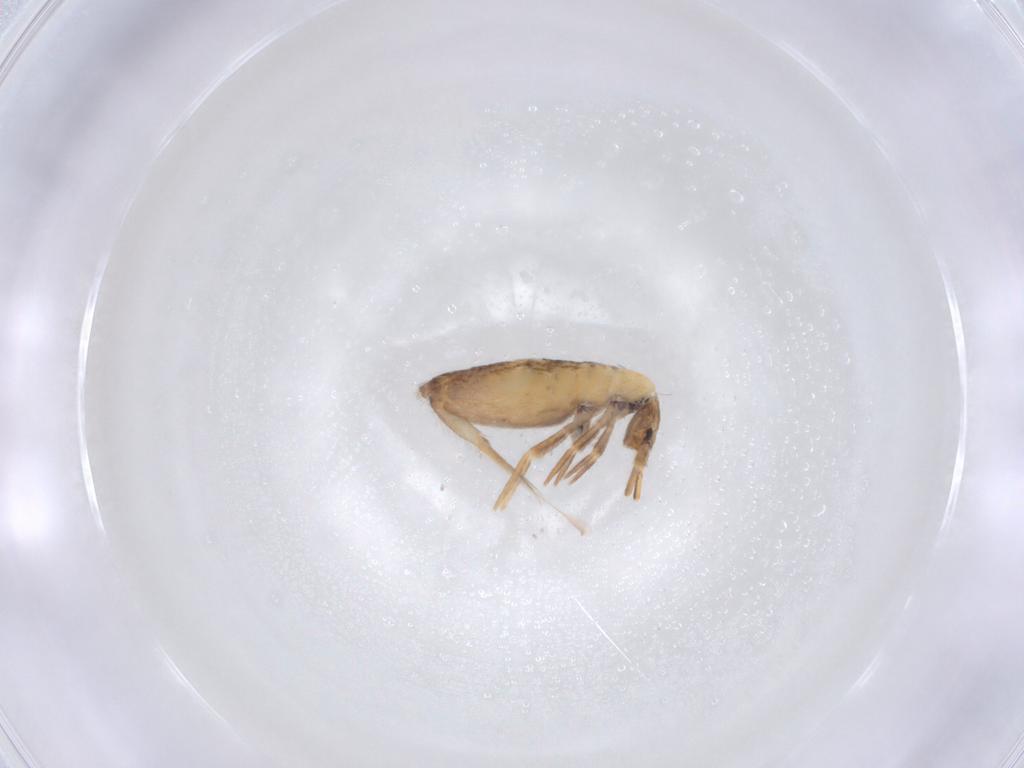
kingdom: Animalia
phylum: Arthropoda
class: Collembola
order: Entomobryomorpha
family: Entomobryidae
